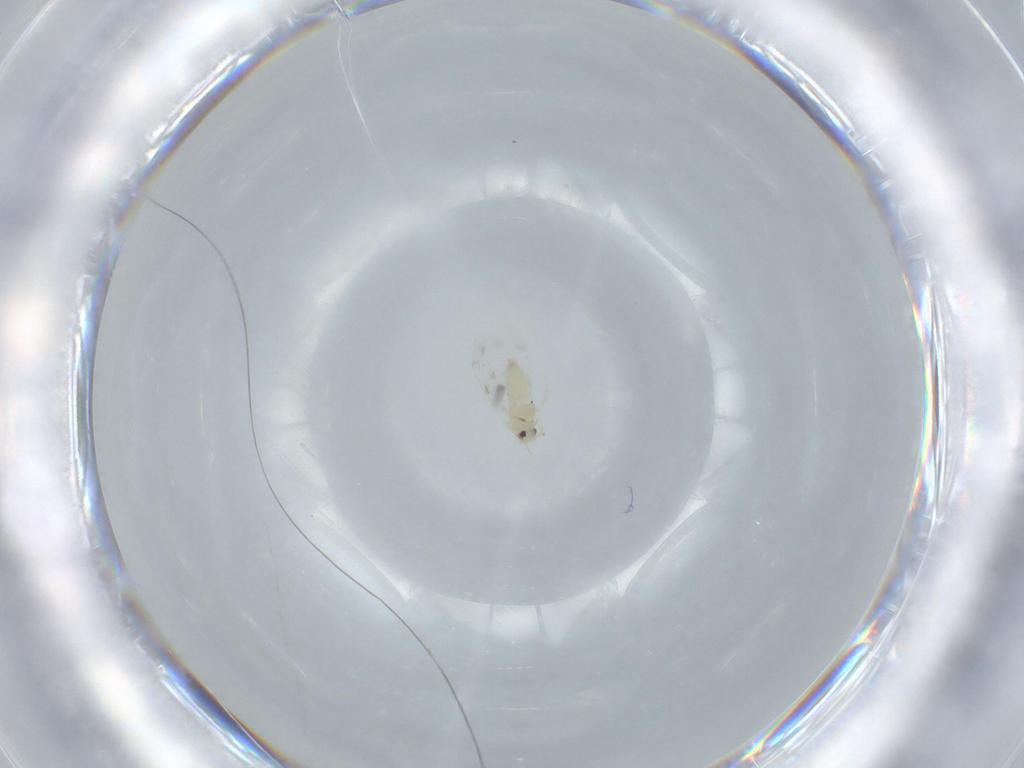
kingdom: Animalia
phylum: Arthropoda
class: Insecta
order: Hemiptera
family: Aleyrodidae
